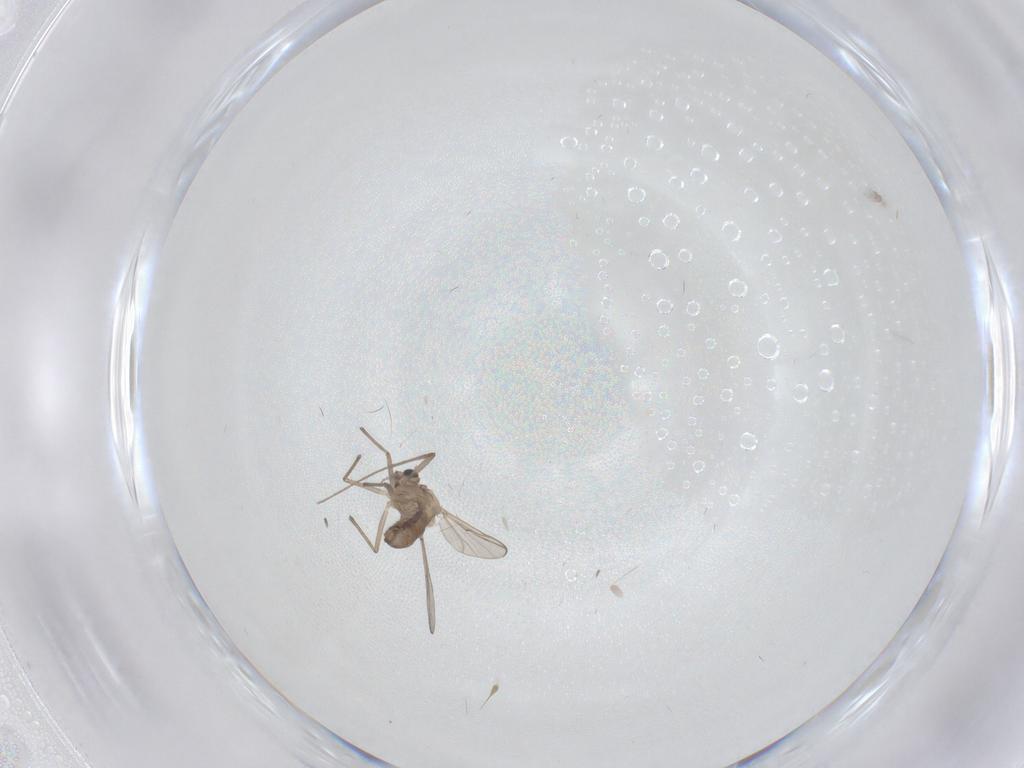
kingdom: Animalia
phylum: Arthropoda
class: Insecta
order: Diptera
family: Chironomidae
